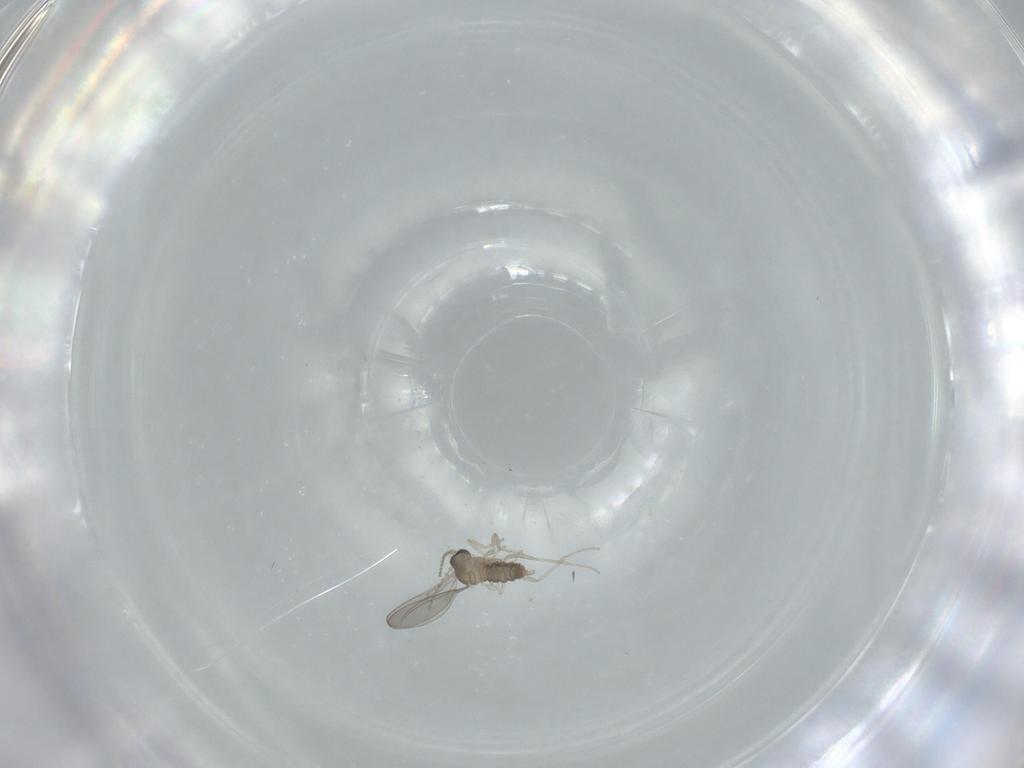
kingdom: Animalia
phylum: Arthropoda
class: Insecta
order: Diptera
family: Cecidomyiidae
